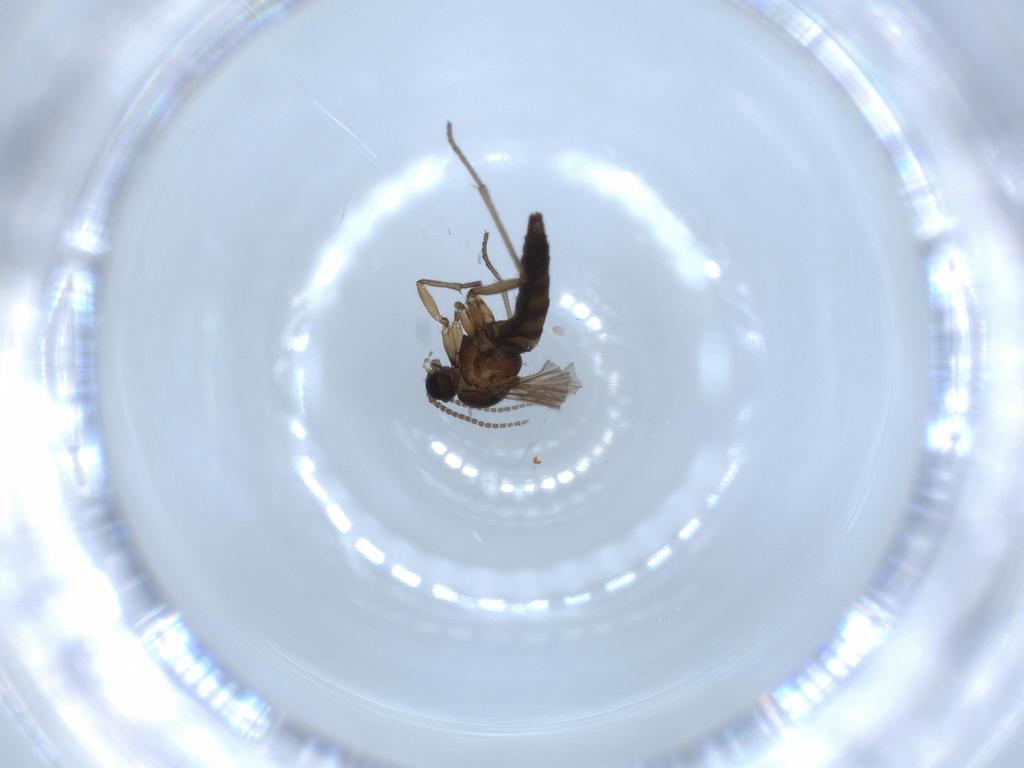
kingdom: Animalia
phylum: Arthropoda
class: Insecta
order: Diptera
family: Sciaridae
